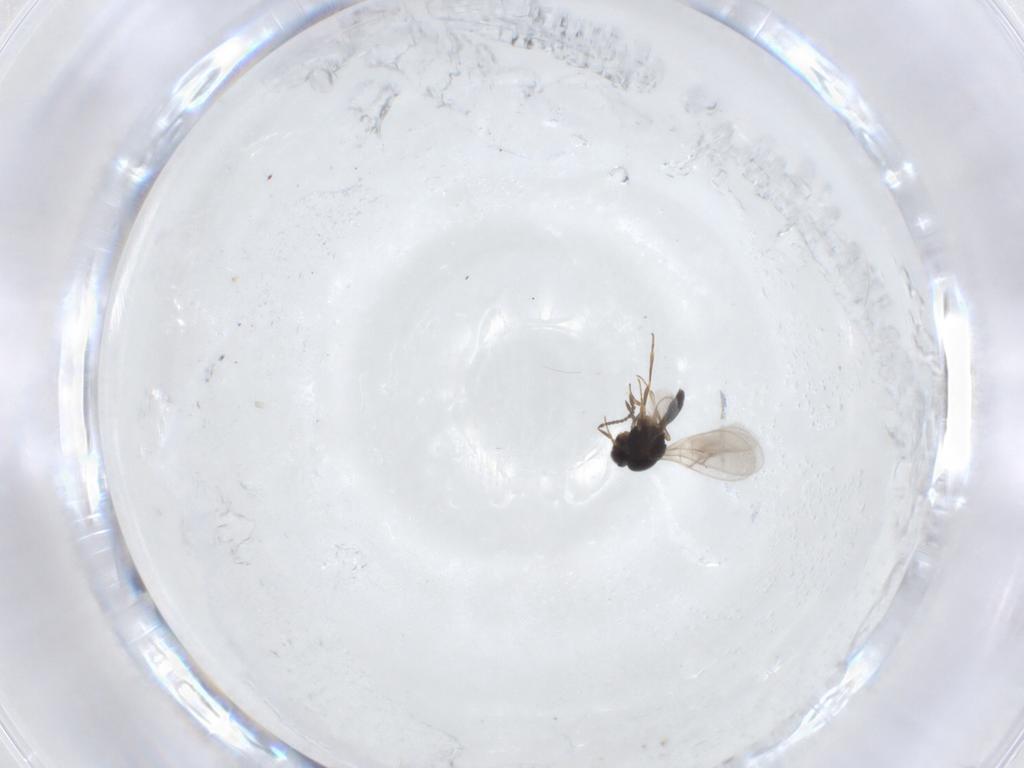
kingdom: Animalia
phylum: Arthropoda
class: Insecta
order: Hymenoptera
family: Scelionidae
